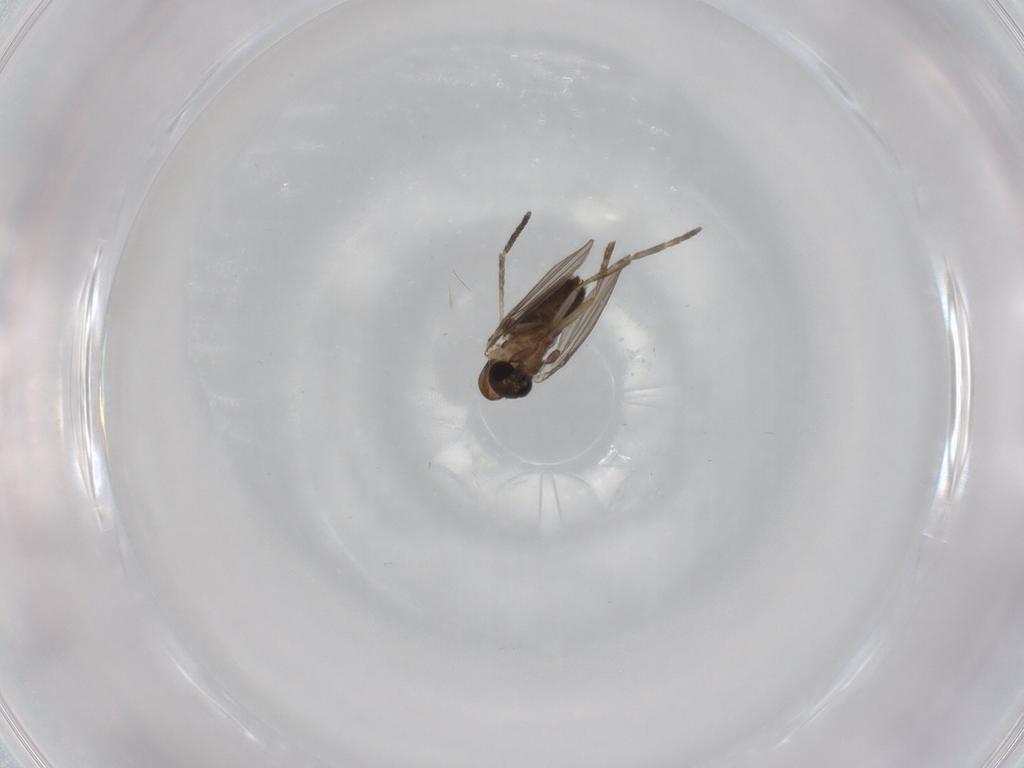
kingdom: Animalia
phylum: Arthropoda
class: Insecta
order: Diptera
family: Dolichopodidae
